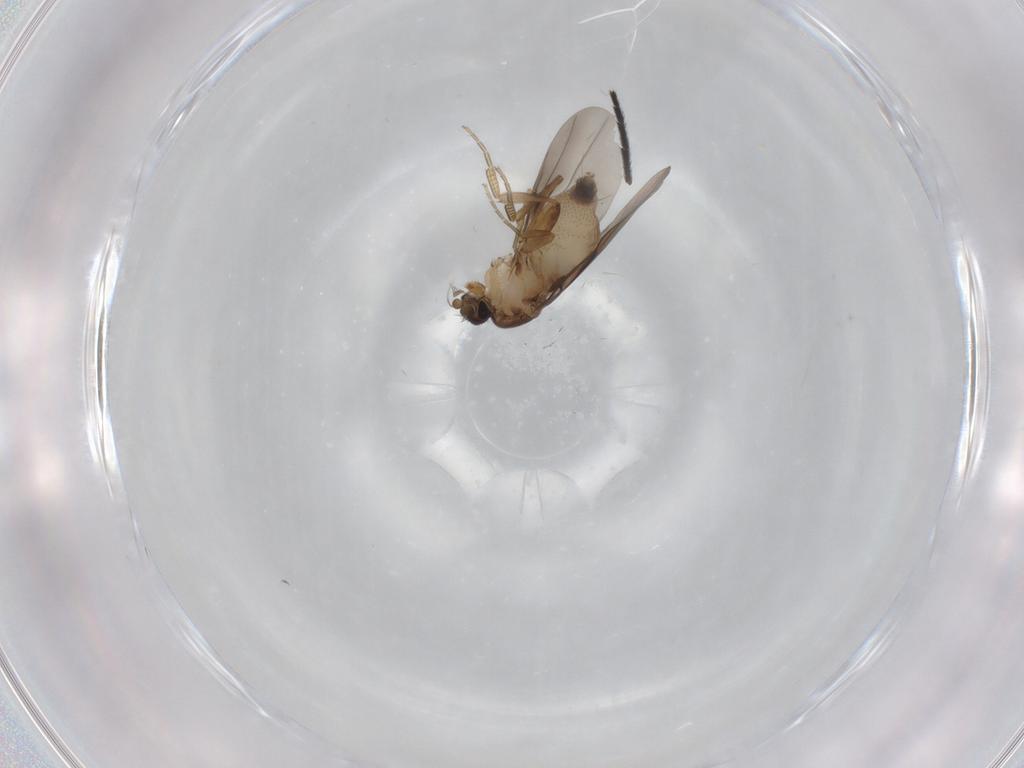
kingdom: Animalia
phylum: Arthropoda
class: Insecta
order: Diptera
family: Phoridae
